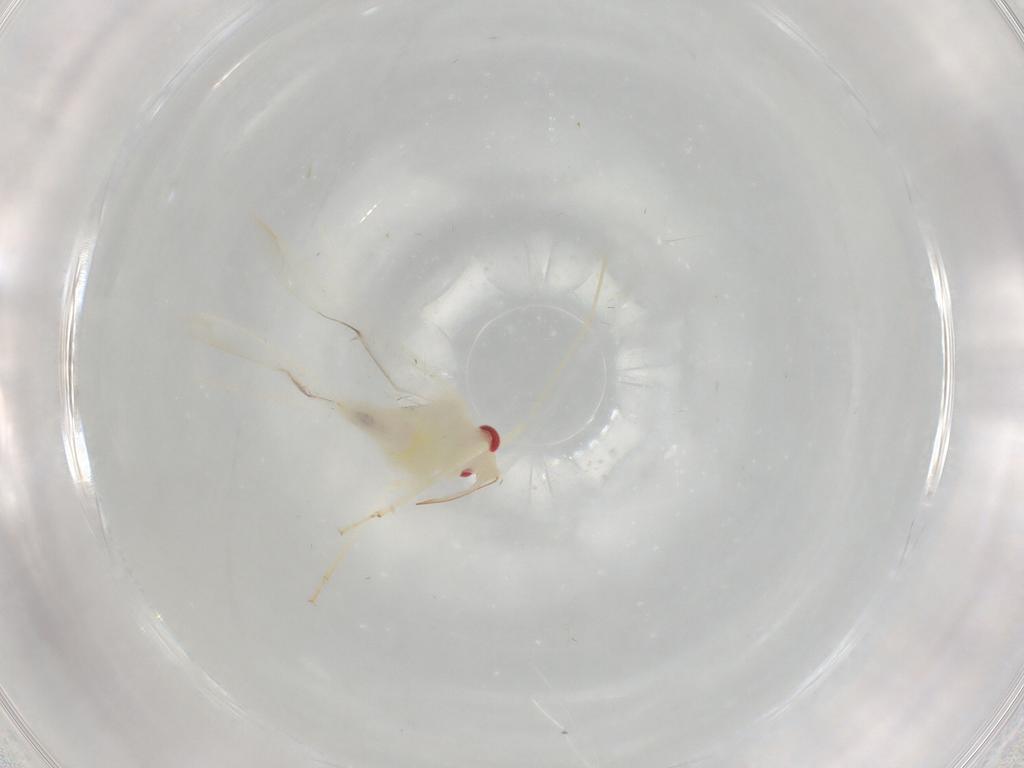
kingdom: Animalia
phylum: Arthropoda
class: Insecta
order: Hemiptera
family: Miridae
